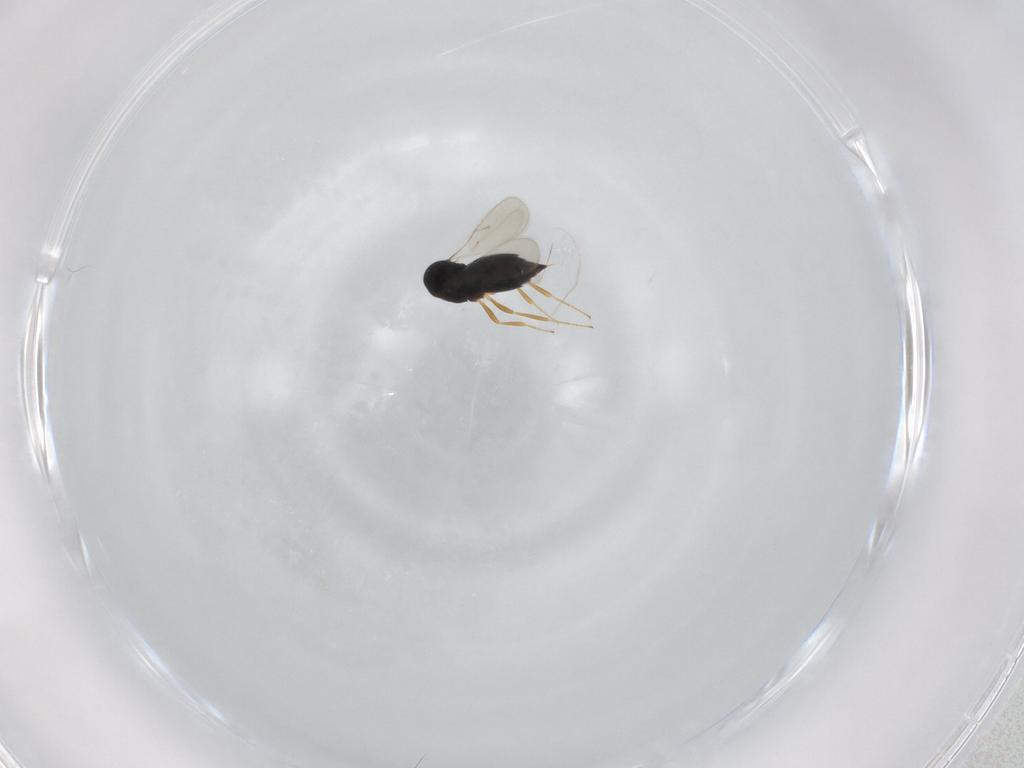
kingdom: Animalia
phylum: Arthropoda
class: Insecta
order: Hymenoptera
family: Scelionidae
